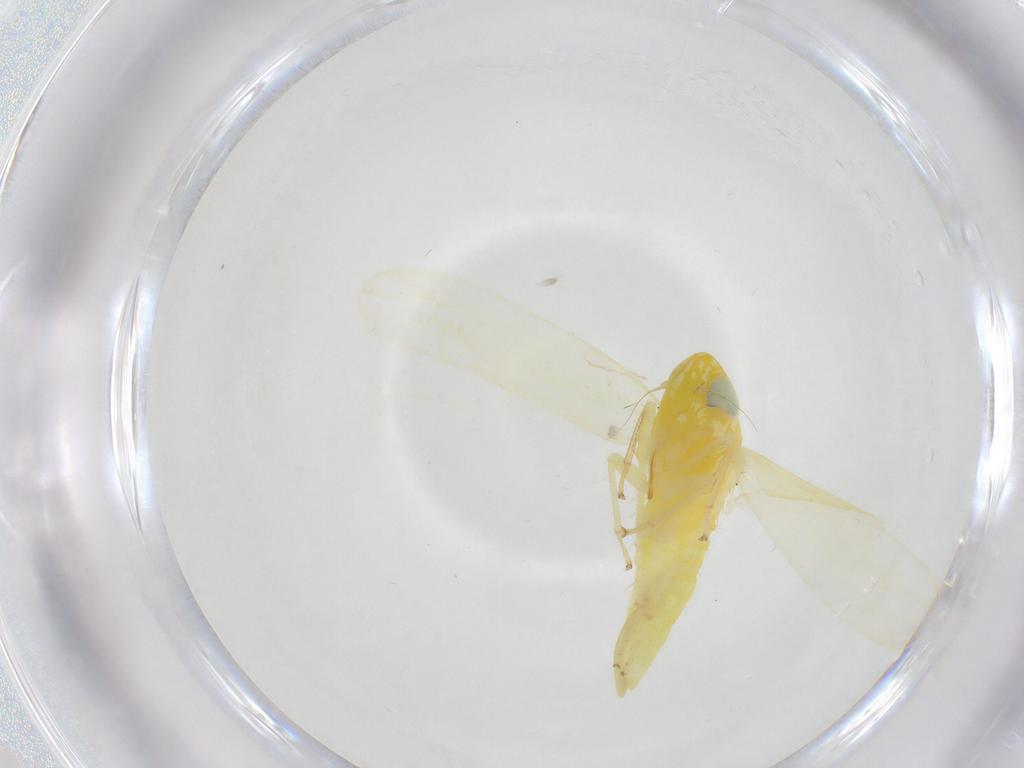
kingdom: Animalia
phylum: Arthropoda
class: Insecta
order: Hemiptera
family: Cicadellidae
